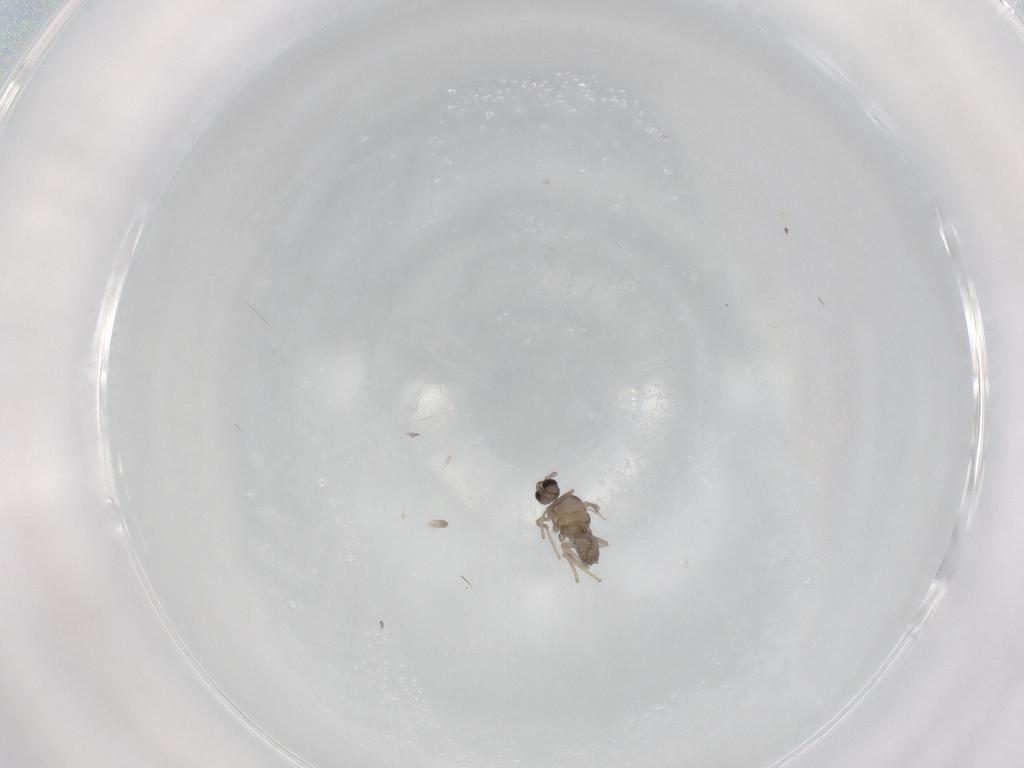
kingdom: Animalia
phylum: Arthropoda
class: Insecta
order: Diptera
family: Cecidomyiidae
